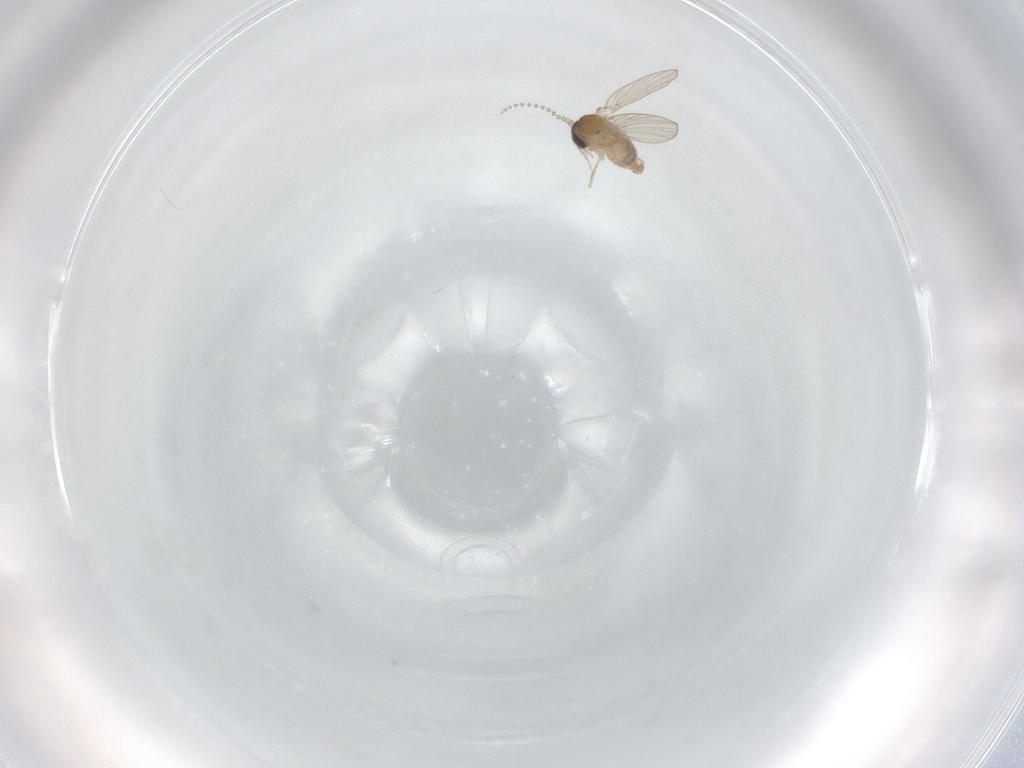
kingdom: Animalia
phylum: Arthropoda
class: Insecta
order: Diptera
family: Psychodidae
